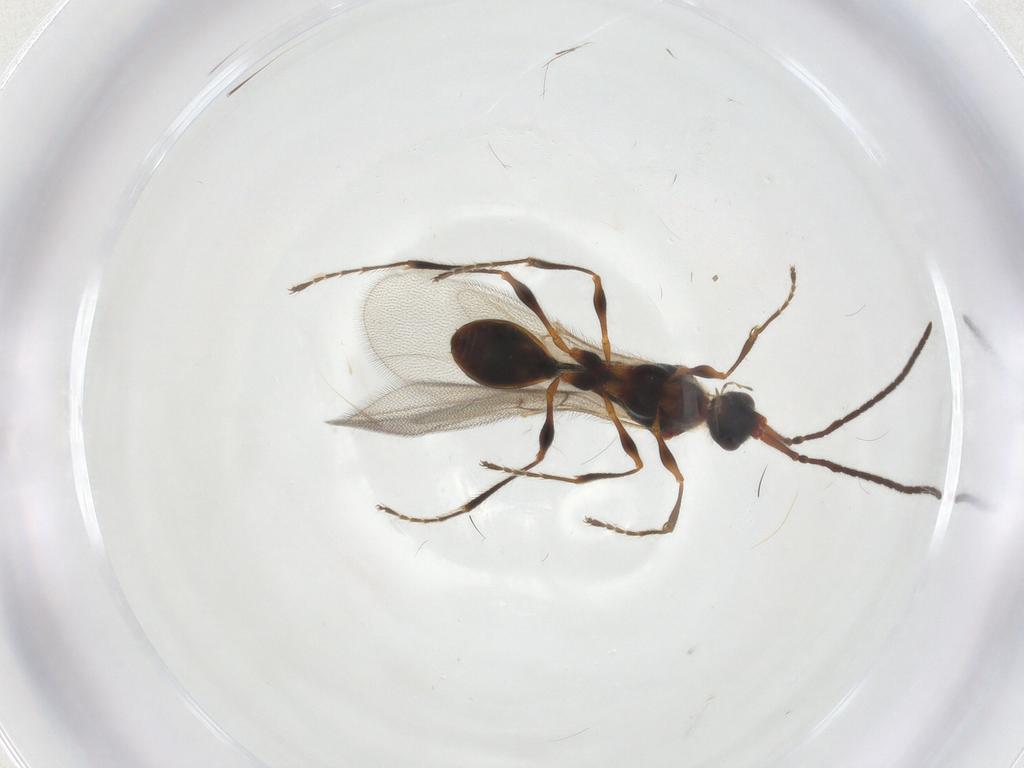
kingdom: Animalia
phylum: Arthropoda
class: Insecta
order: Hymenoptera
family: Diapriidae
